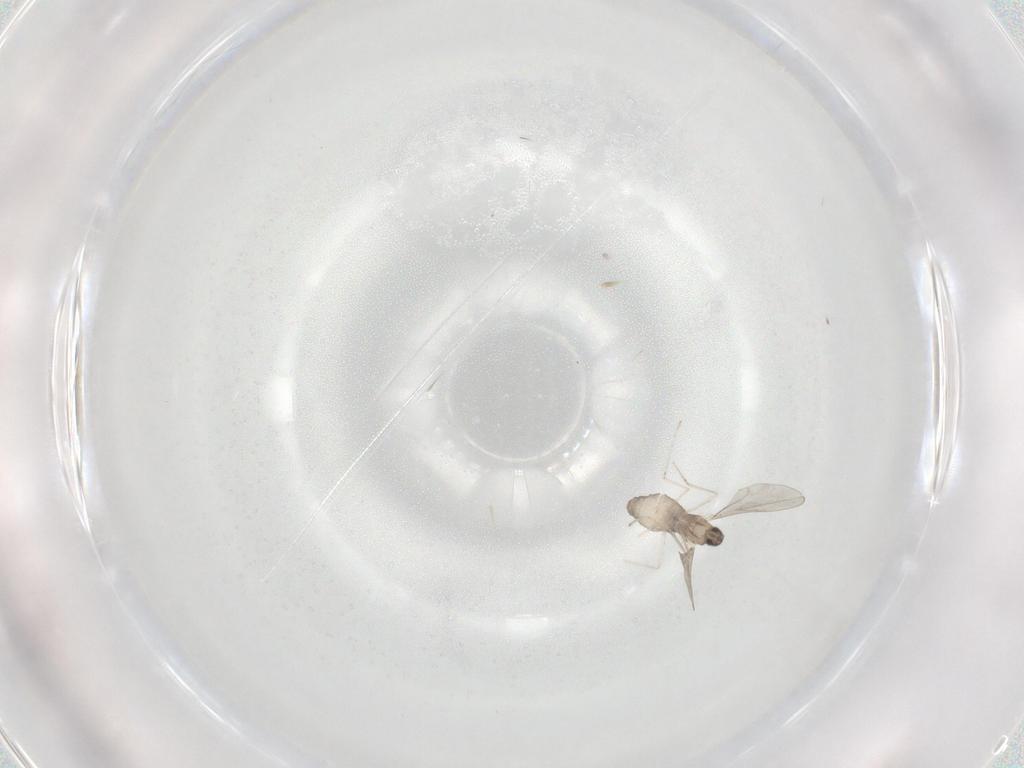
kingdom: Animalia
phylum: Arthropoda
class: Insecta
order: Diptera
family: Cecidomyiidae
